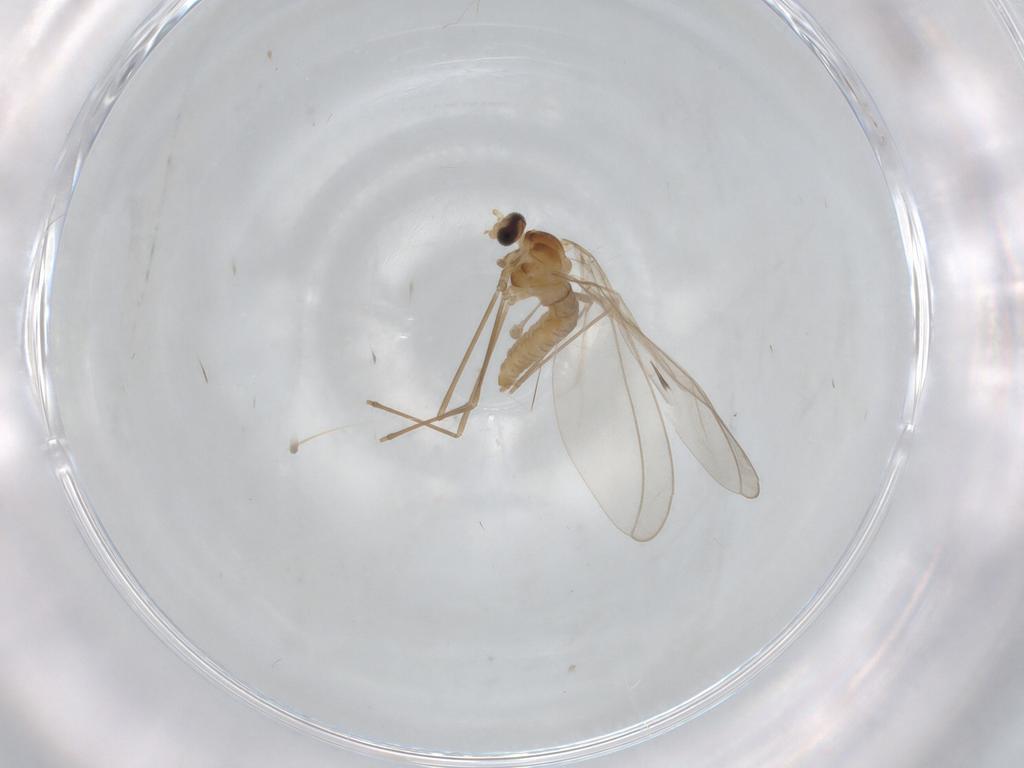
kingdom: Animalia
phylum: Arthropoda
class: Insecta
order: Diptera
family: Cecidomyiidae
